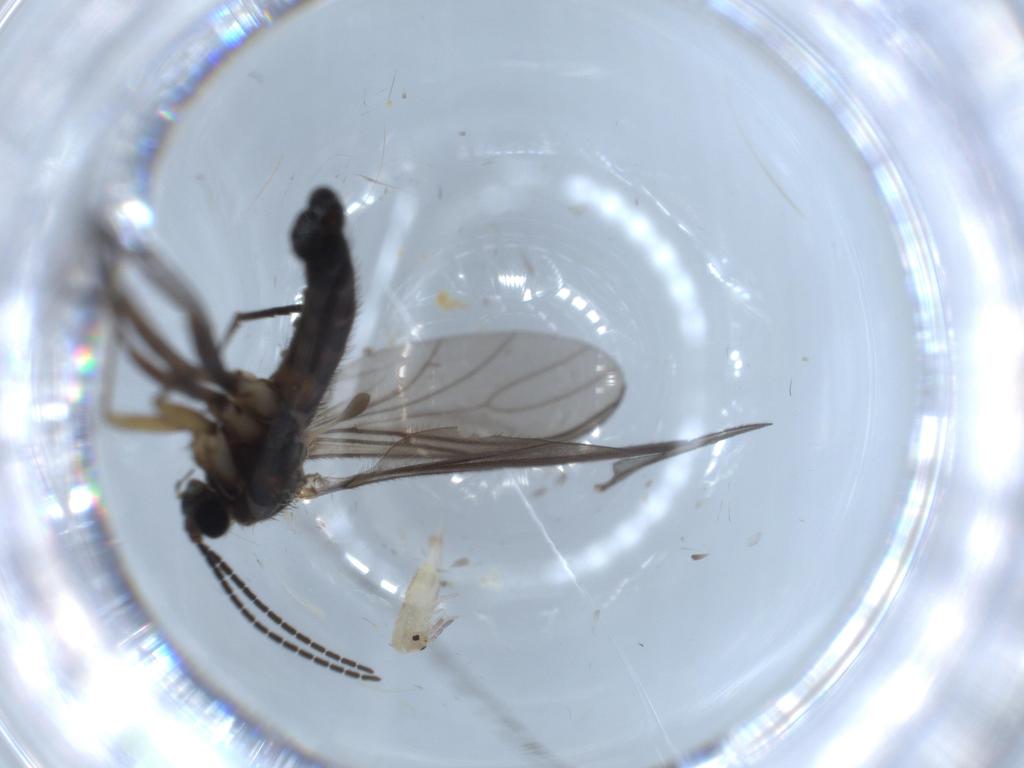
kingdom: Animalia
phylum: Arthropoda
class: Insecta
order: Diptera
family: Sciaridae
